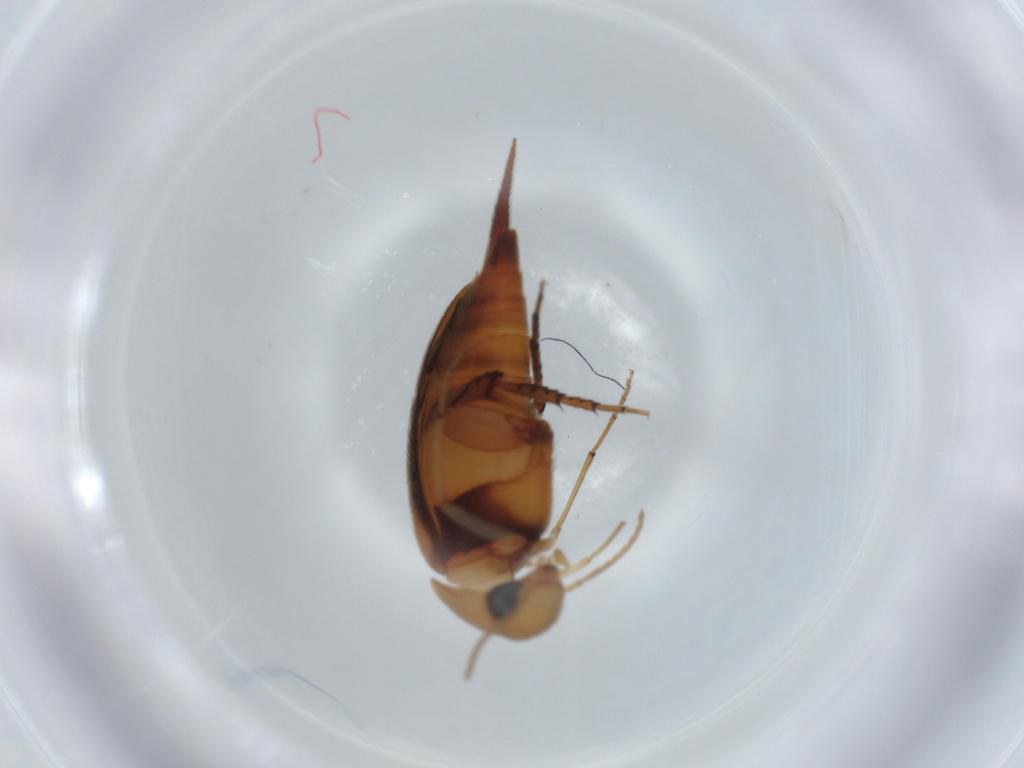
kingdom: Animalia
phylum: Arthropoda
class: Insecta
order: Coleoptera
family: Mordellidae
